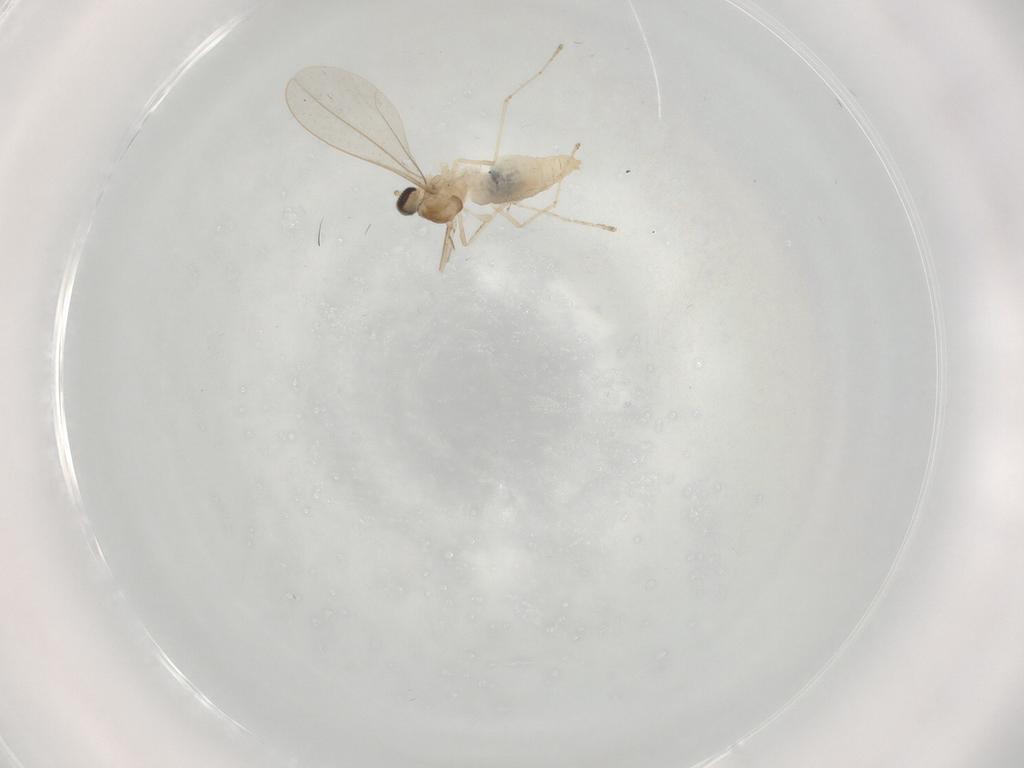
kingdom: Animalia
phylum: Arthropoda
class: Insecta
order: Diptera
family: Cecidomyiidae
